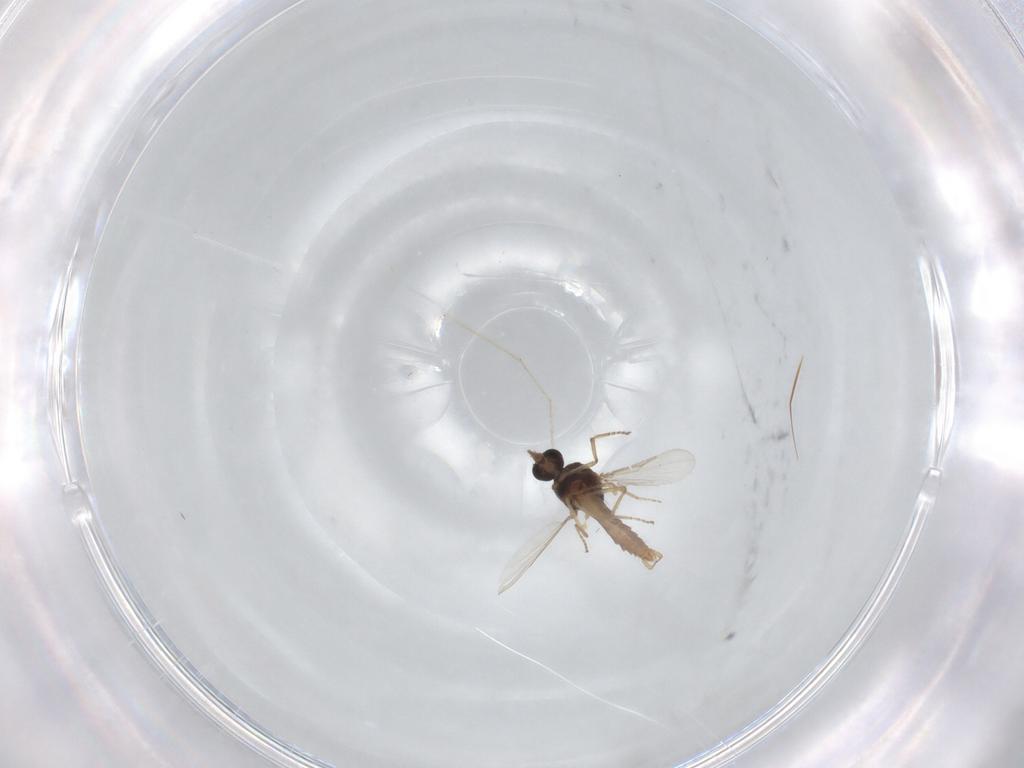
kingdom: Animalia
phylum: Arthropoda
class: Insecta
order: Diptera
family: Ceratopogonidae
